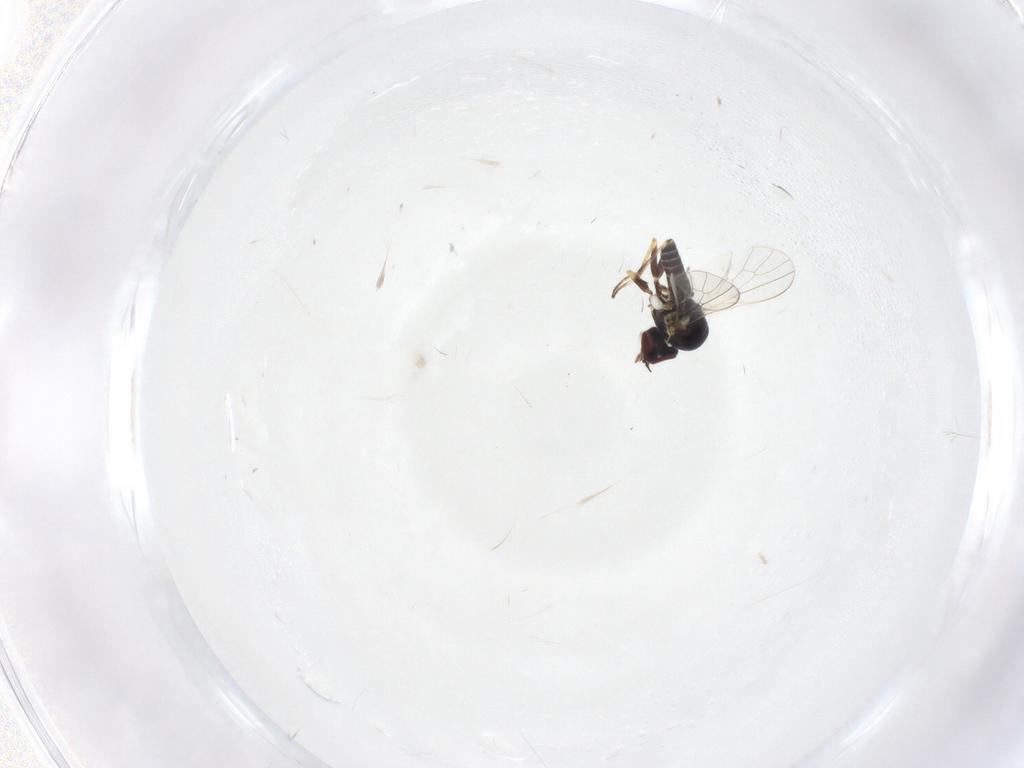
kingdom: Animalia
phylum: Arthropoda
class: Insecta
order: Diptera
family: Mythicomyiidae
